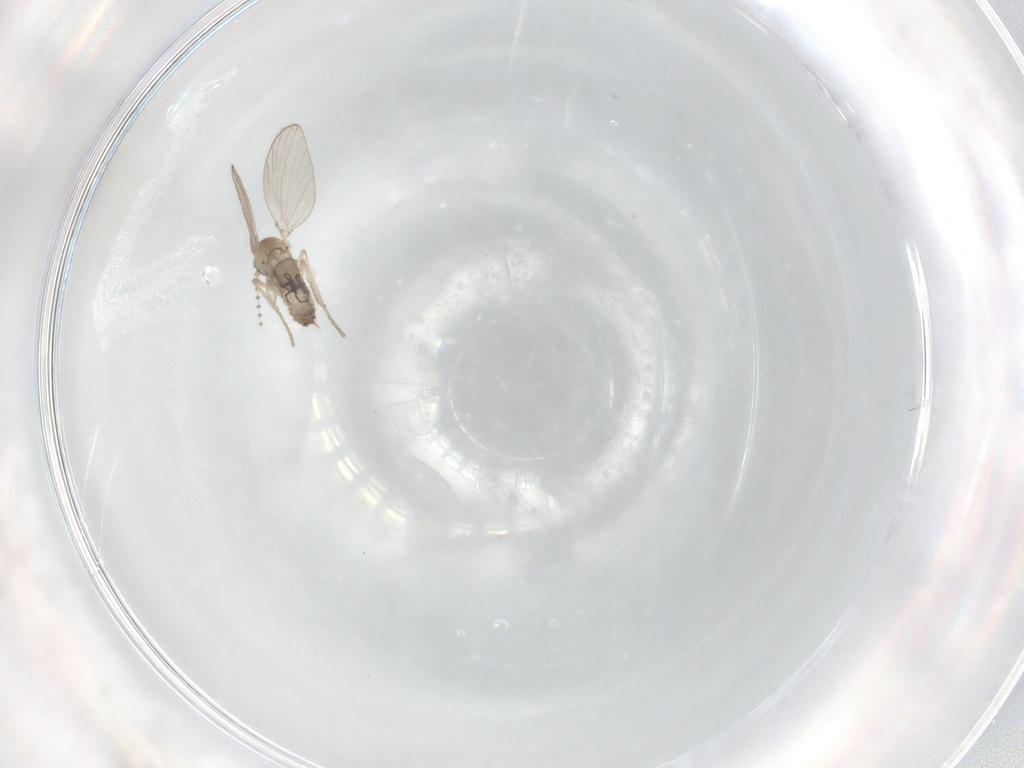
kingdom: Animalia
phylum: Arthropoda
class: Insecta
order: Diptera
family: Psychodidae
